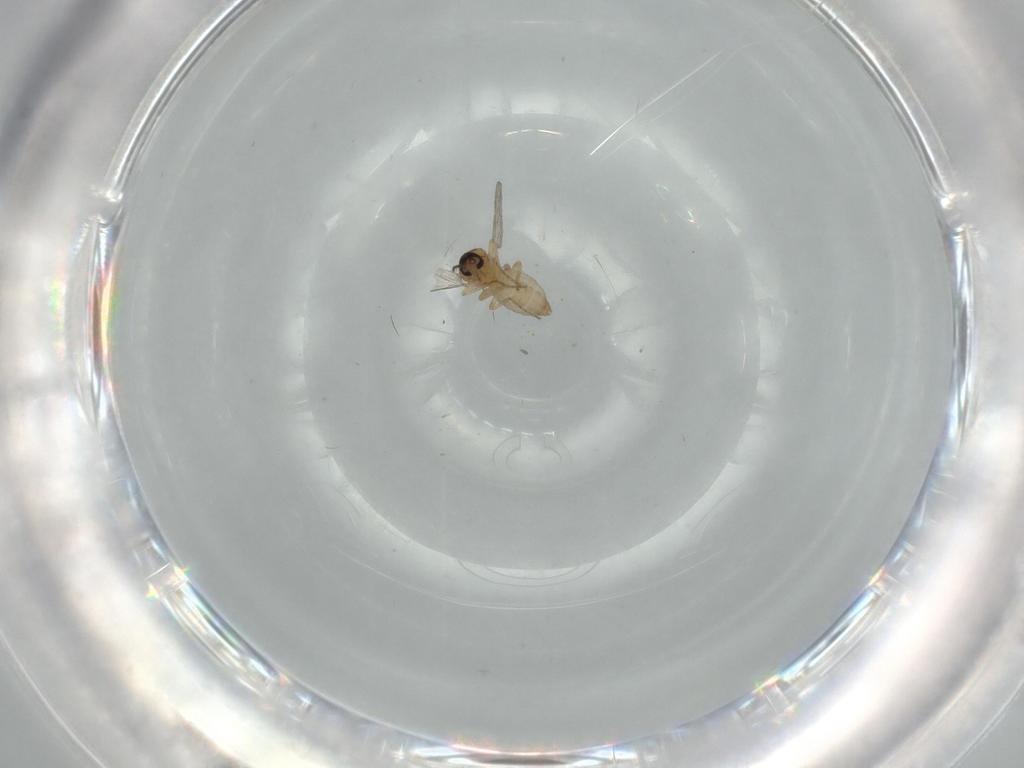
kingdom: Animalia
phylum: Arthropoda
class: Insecta
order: Diptera
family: Ceratopogonidae
